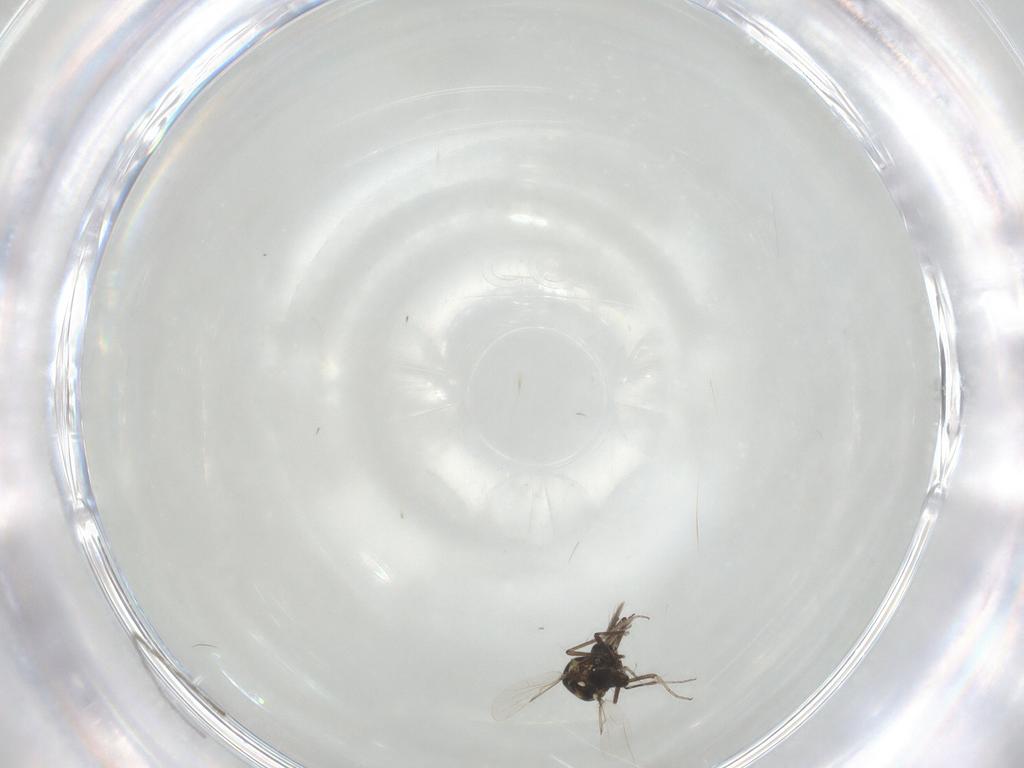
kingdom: Animalia
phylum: Arthropoda
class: Insecta
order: Diptera
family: Ceratopogonidae
